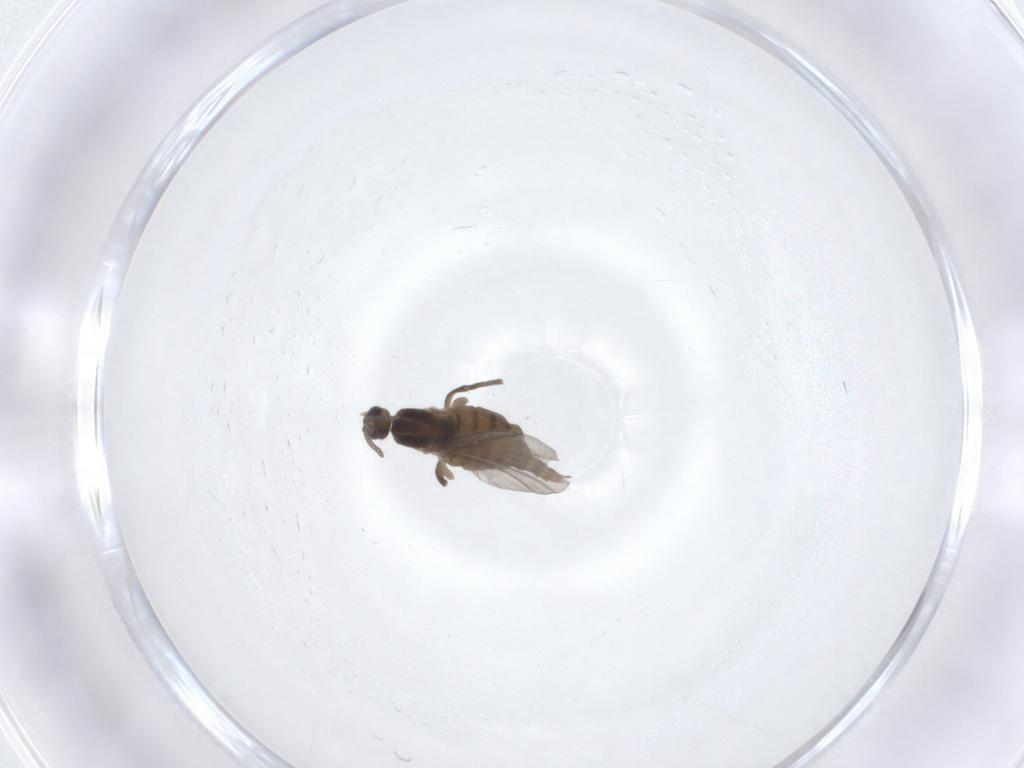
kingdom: Animalia
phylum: Arthropoda
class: Insecta
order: Diptera
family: Cecidomyiidae
